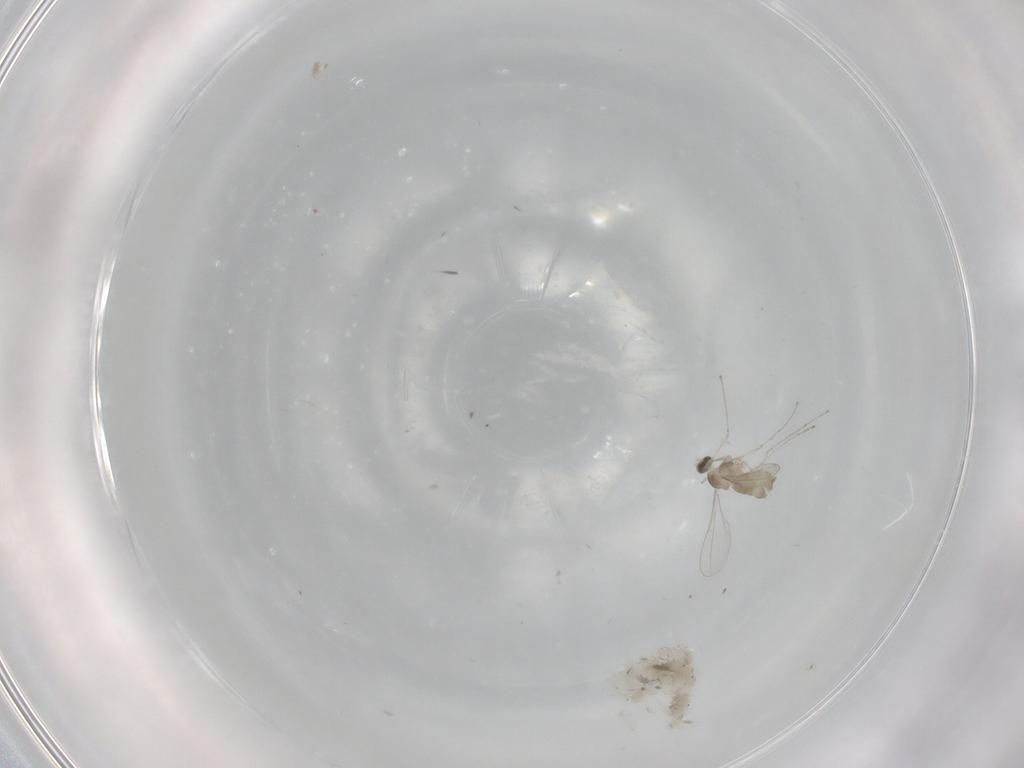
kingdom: Animalia
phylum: Arthropoda
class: Insecta
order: Diptera
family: Cecidomyiidae
